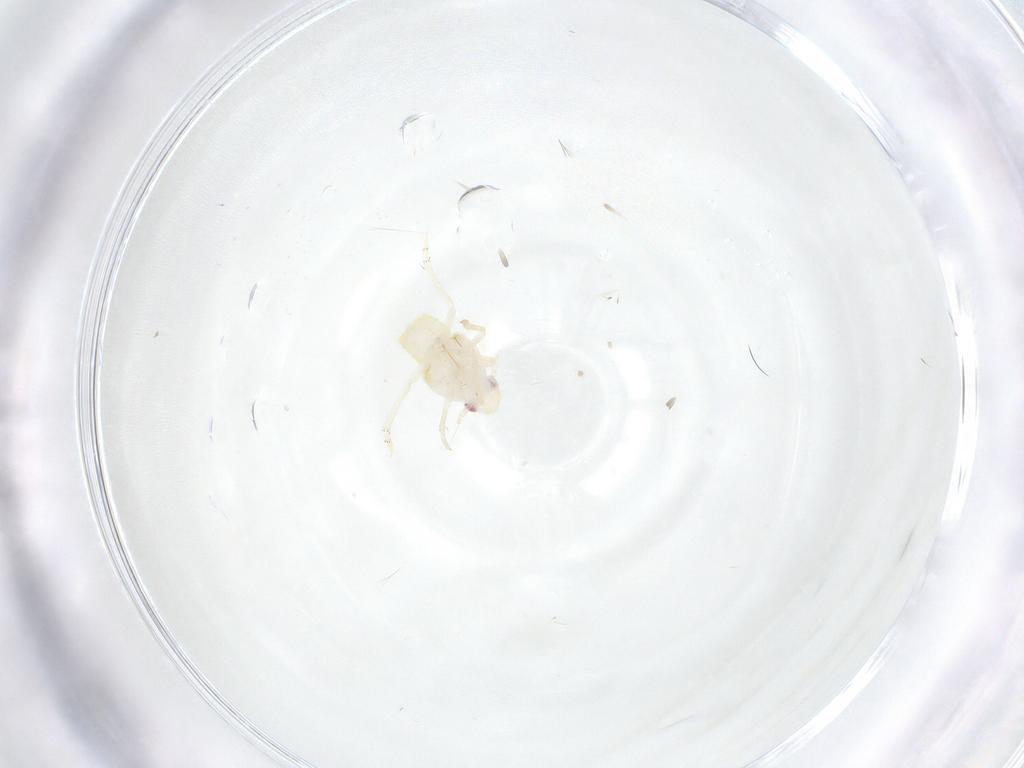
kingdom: Animalia
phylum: Arthropoda
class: Insecta
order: Hemiptera
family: Flatidae
